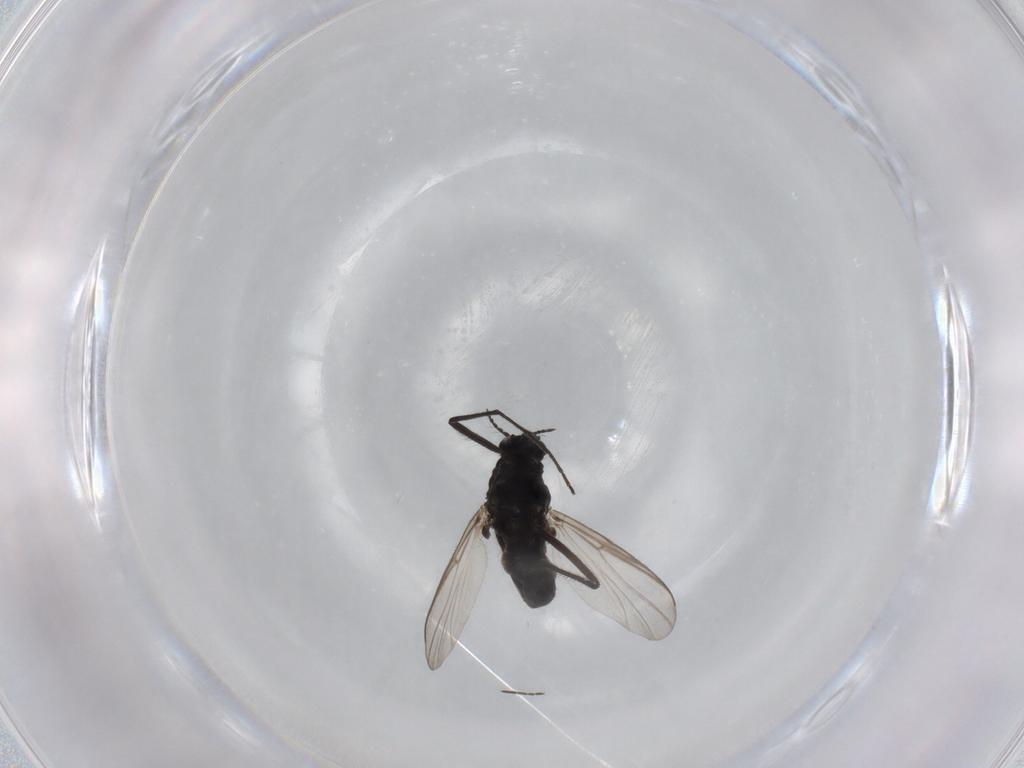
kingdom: Animalia
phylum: Arthropoda
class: Insecta
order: Diptera
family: Chironomidae
